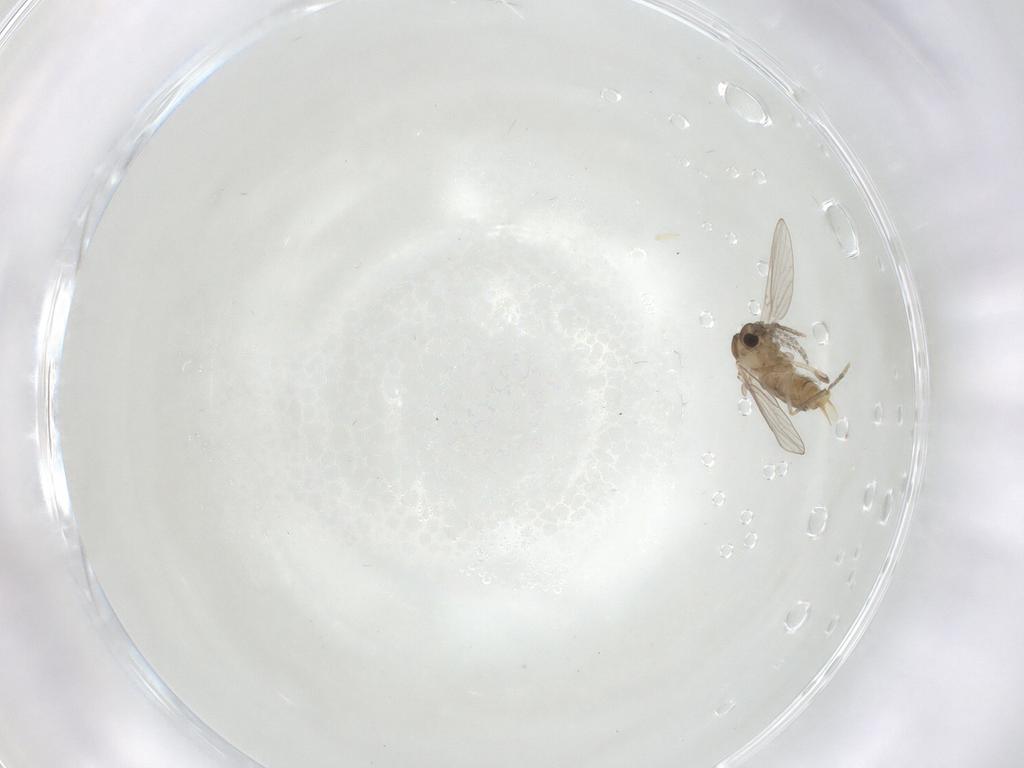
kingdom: Animalia
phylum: Arthropoda
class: Insecta
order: Diptera
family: Psychodidae
